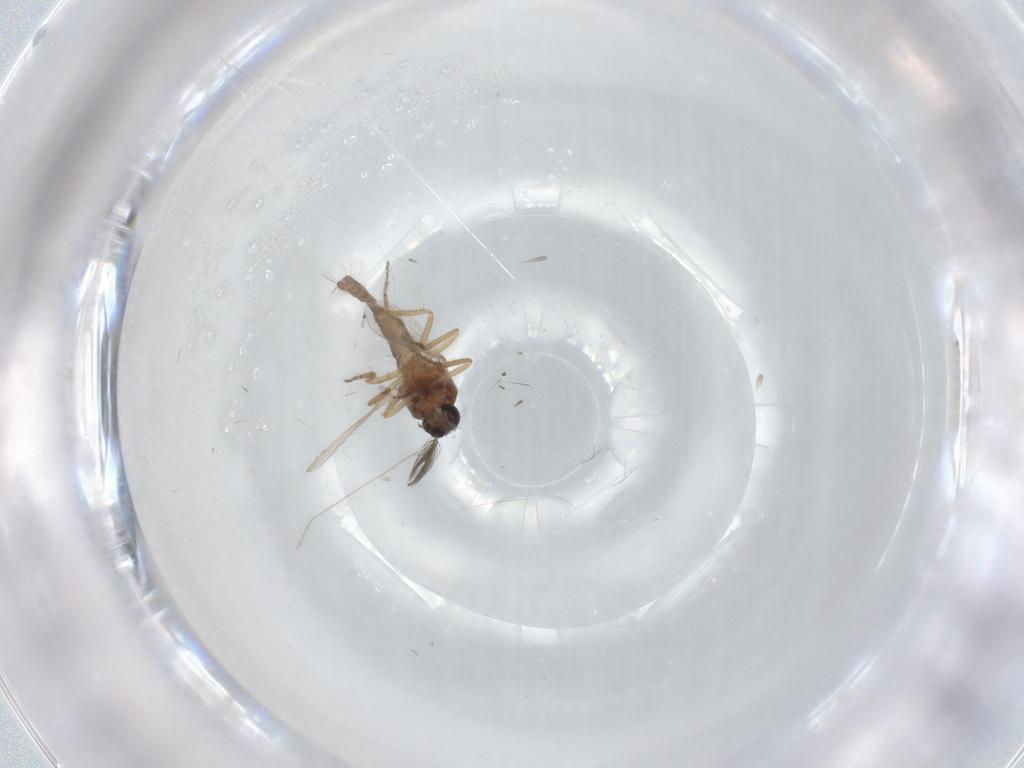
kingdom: Animalia
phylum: Arthropoda
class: Insecta
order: Diptera
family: Ceratopogonidae
